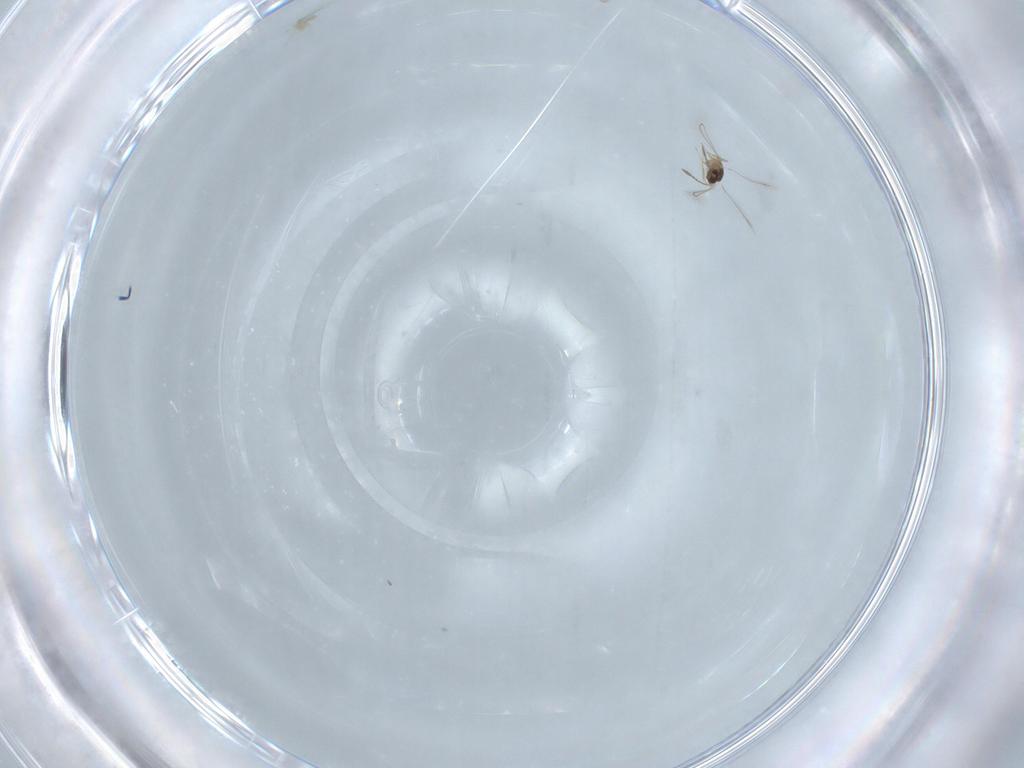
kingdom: Animalia
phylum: Arthropoda
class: Insecta
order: Hymenoptera
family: Mymaridae
